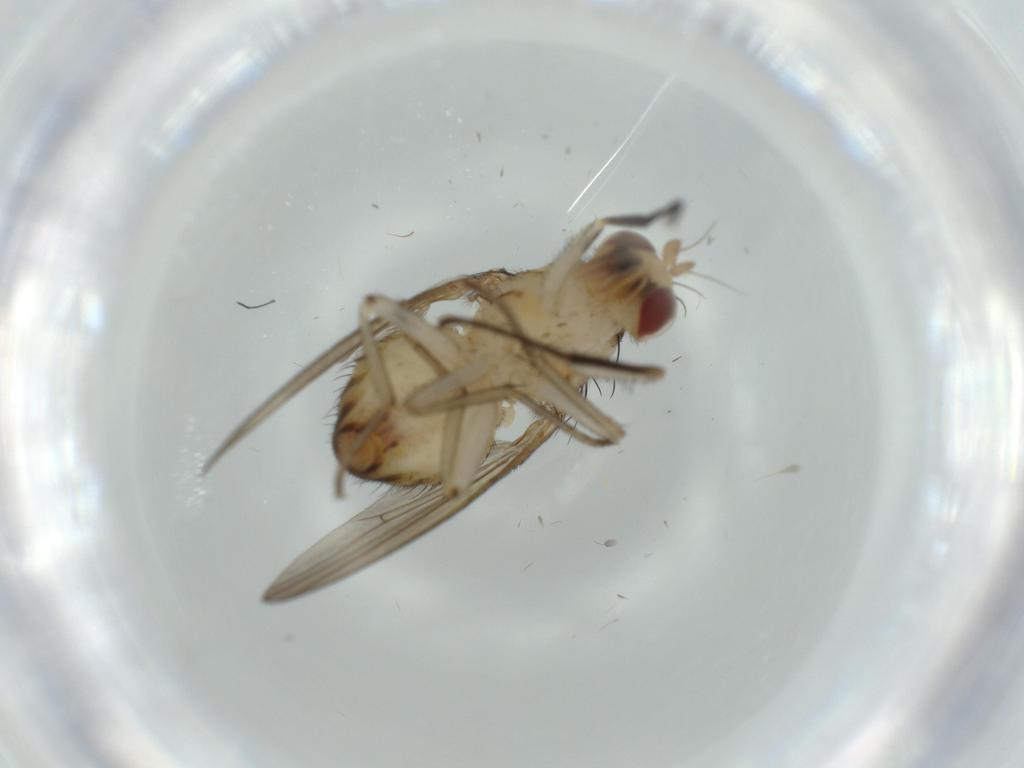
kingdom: Animalia
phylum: Arthropoda
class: Insecta
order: Diptera
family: Lauxaniidae
